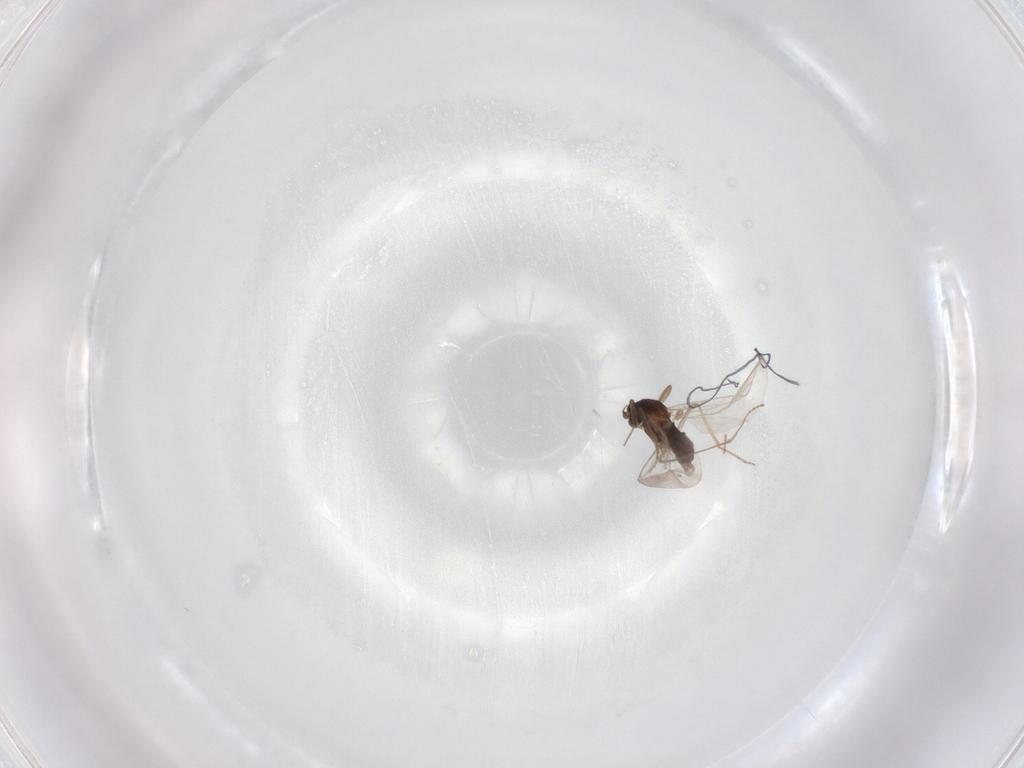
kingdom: Animalia
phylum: Arthropoda
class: Insecta
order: Diptera
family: Cecidomyiidae
